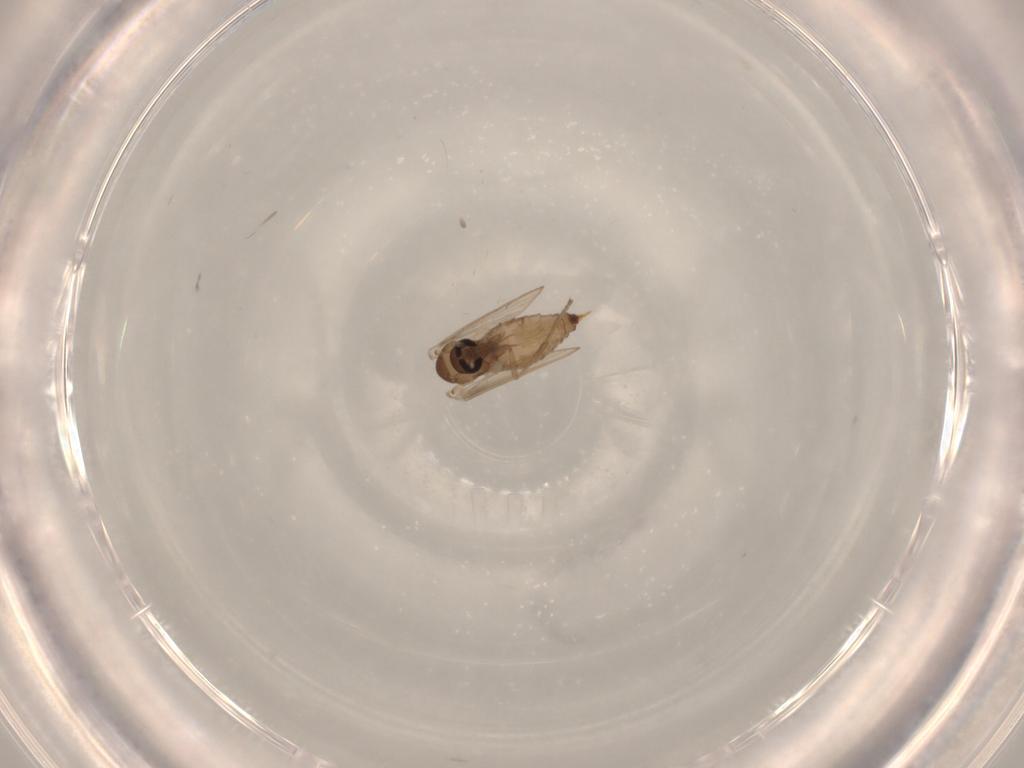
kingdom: Animalia
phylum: Arthropoda
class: Insecta
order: Diptera
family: Psychodidae
